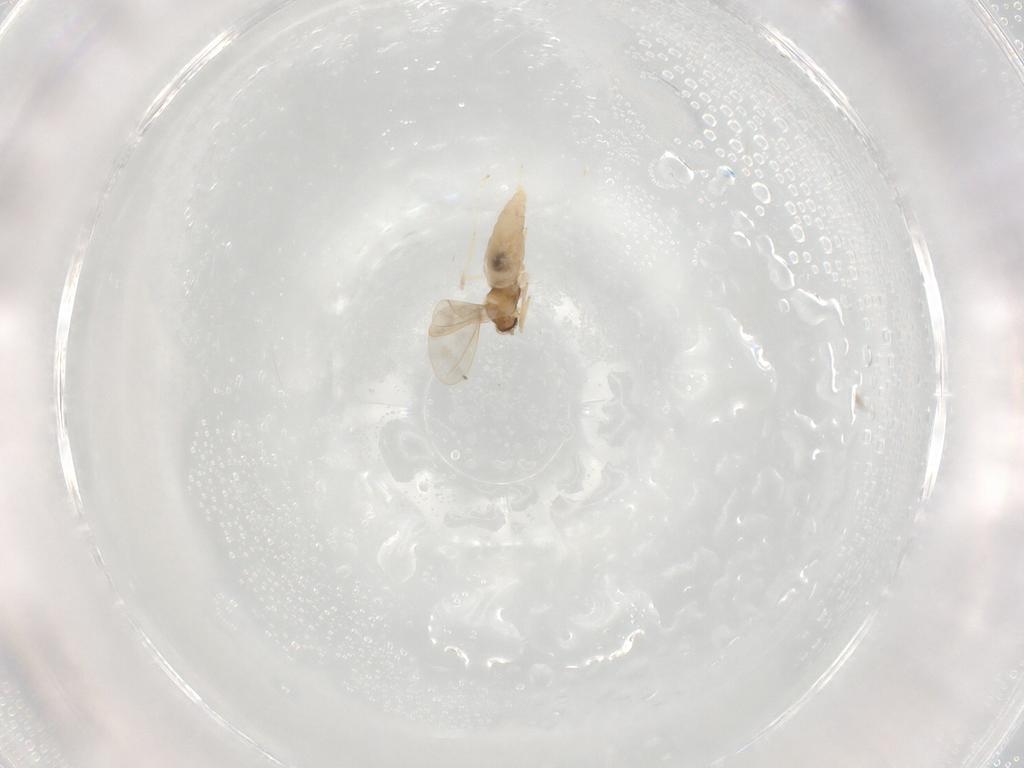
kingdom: Animalia
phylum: Arthropoda
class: Insecta
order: Diptera
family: Cecidomyiidae
